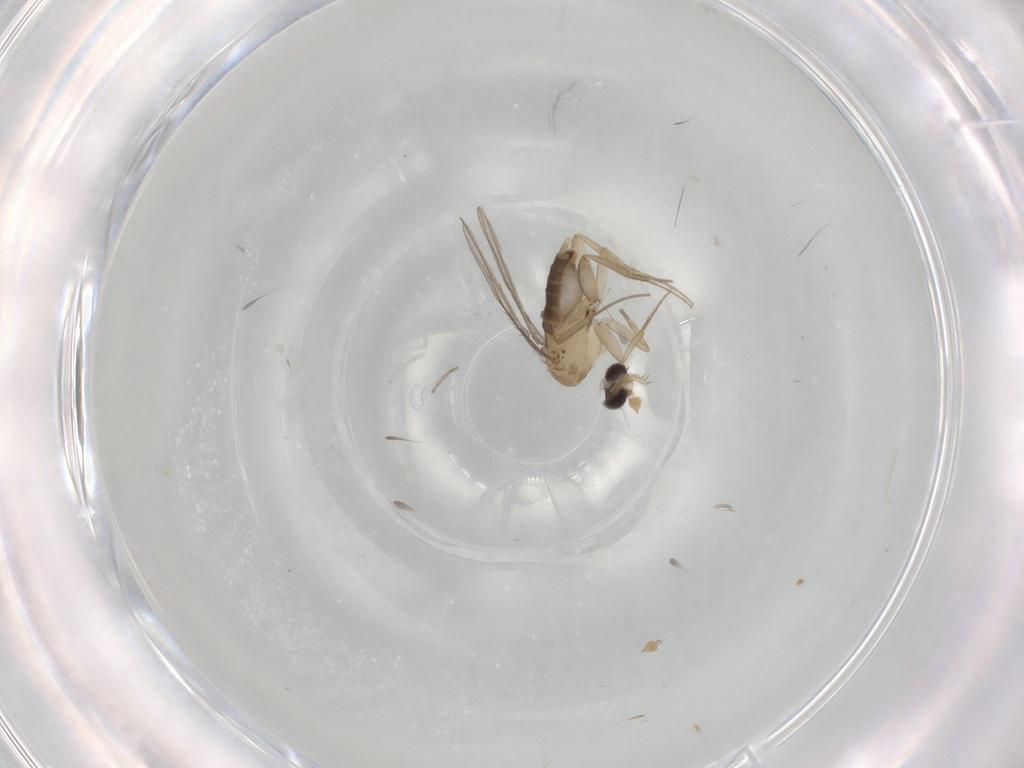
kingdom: Animalia
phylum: Arthropoda
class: Insecta
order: Diptera
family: Phoridae
